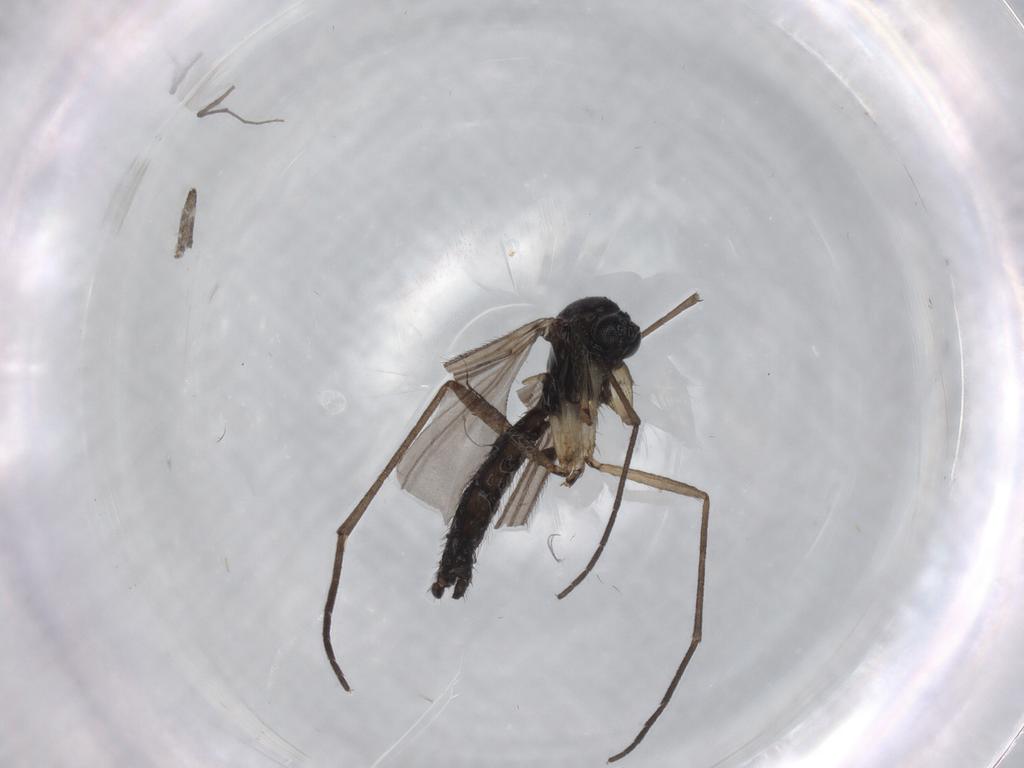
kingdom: Animalia
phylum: Arthropoda
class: Insecta
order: Diptera
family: Sciaridae
